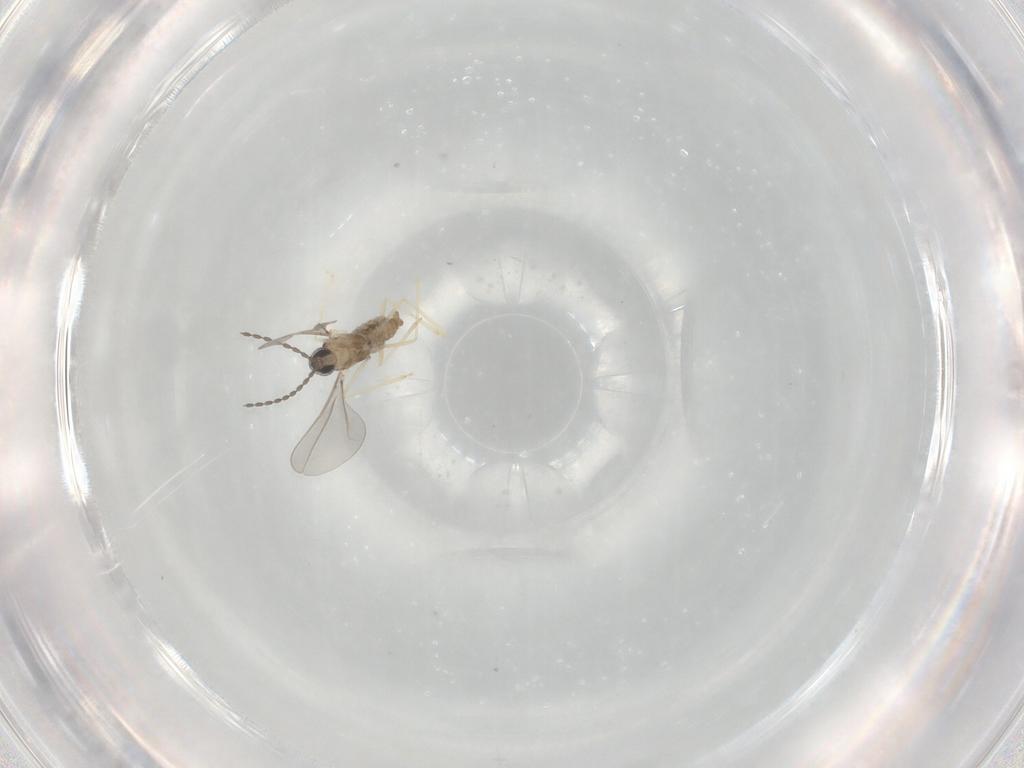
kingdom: Animalia
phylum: Arthropoda
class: Insecta
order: Diptera
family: Cecidomyiidae
